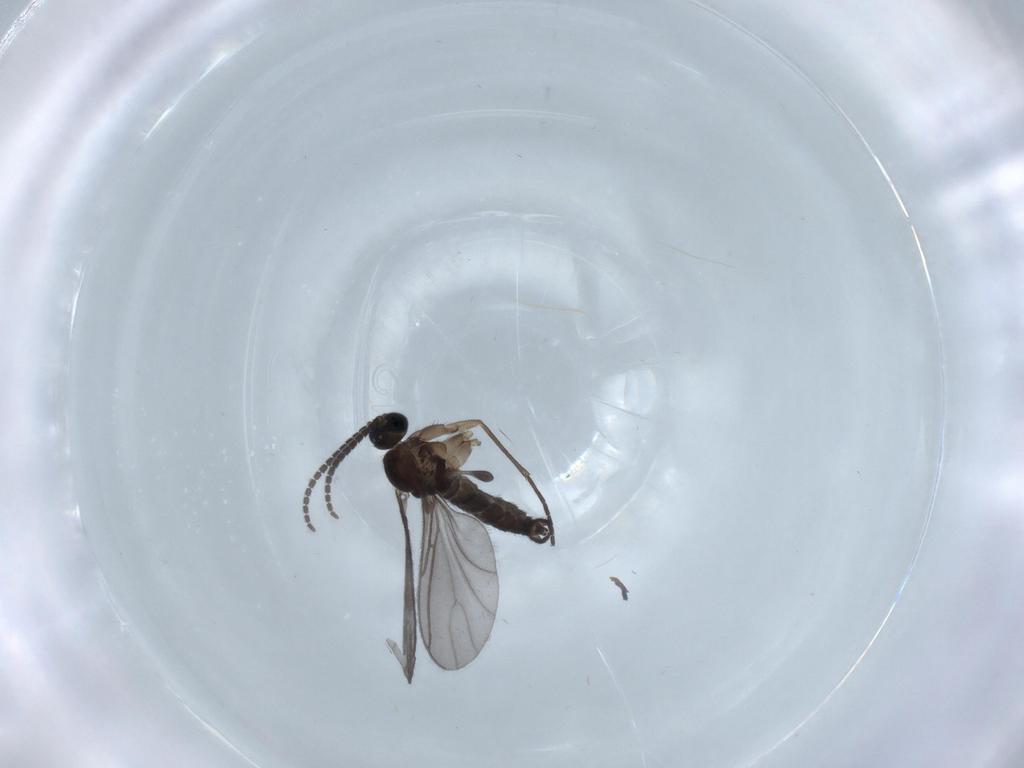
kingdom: Animalia
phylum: Arthropoda
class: Insecta
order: Diptera
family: Sciaridae
